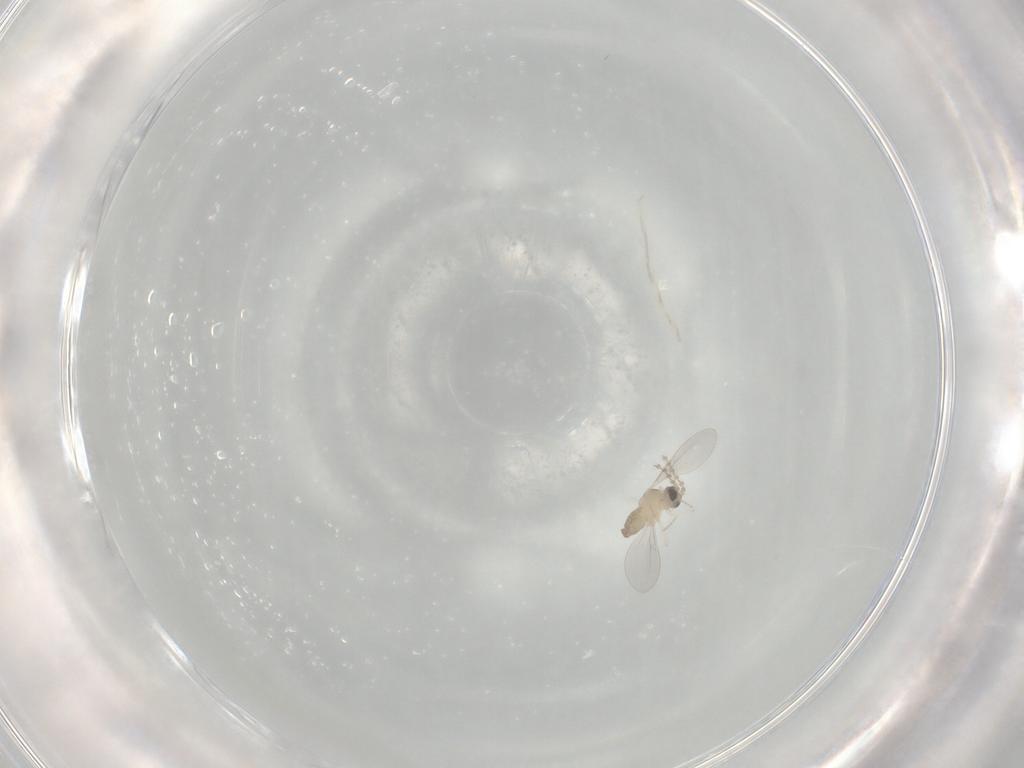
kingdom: Animalia
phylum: Arthropoda
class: Insecta
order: Diptera
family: Cecidomyiidae
